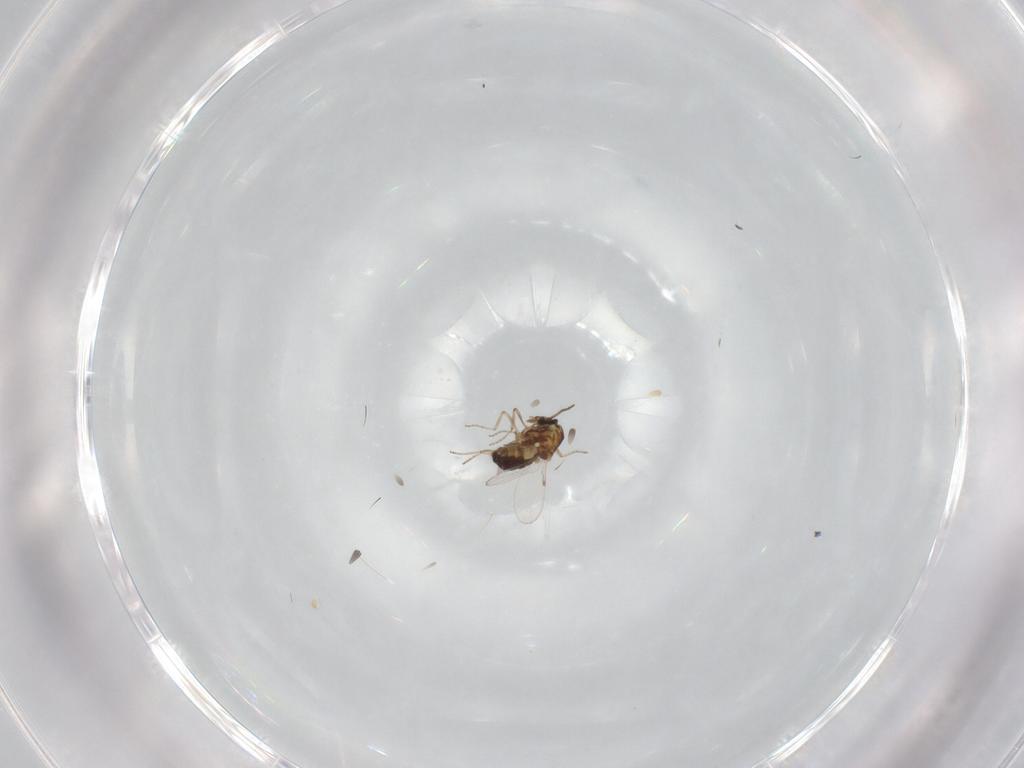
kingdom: Animalia
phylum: Arthropoda
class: Insecta
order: Diptera
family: Cecidomyiidae
